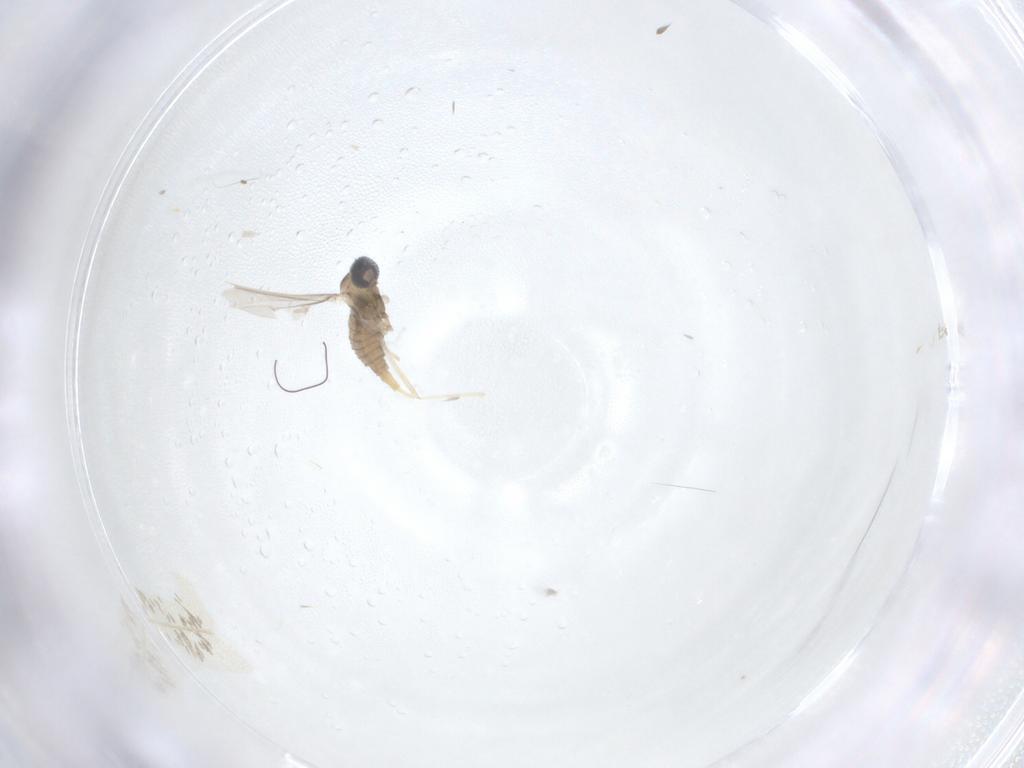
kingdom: Animalia
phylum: Arthropoda
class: Insecta
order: Diptera
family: Cecidomyiidae
